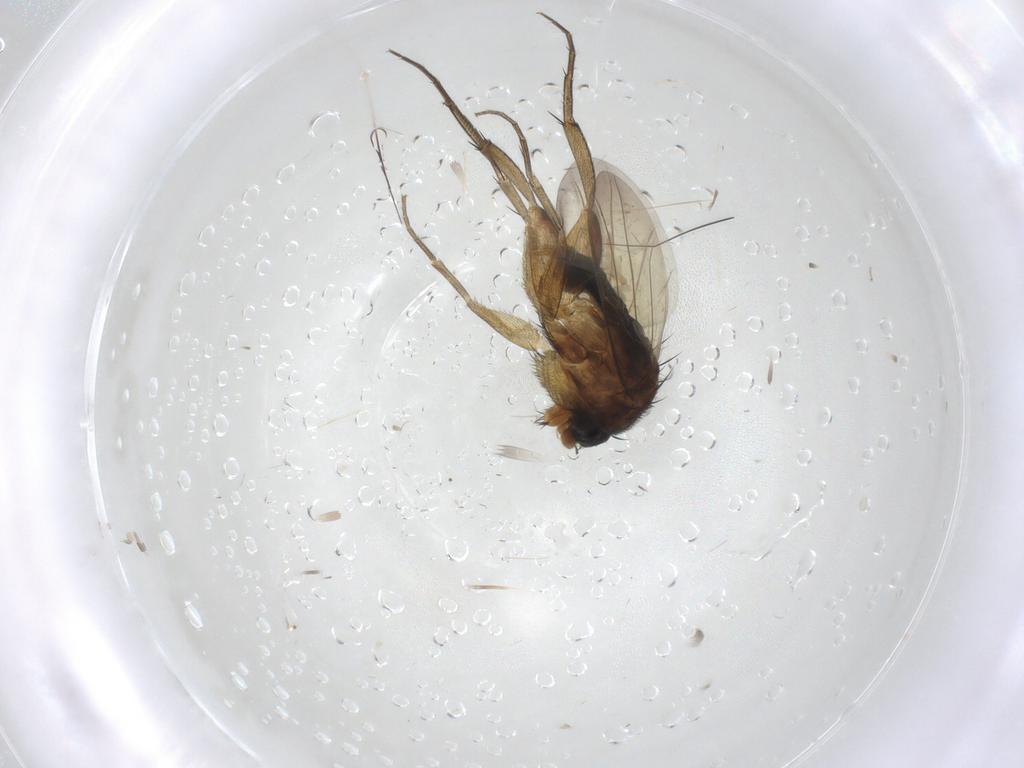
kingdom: Animalia
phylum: Arthropoda
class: Insecta
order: Diptera
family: Phoridae
